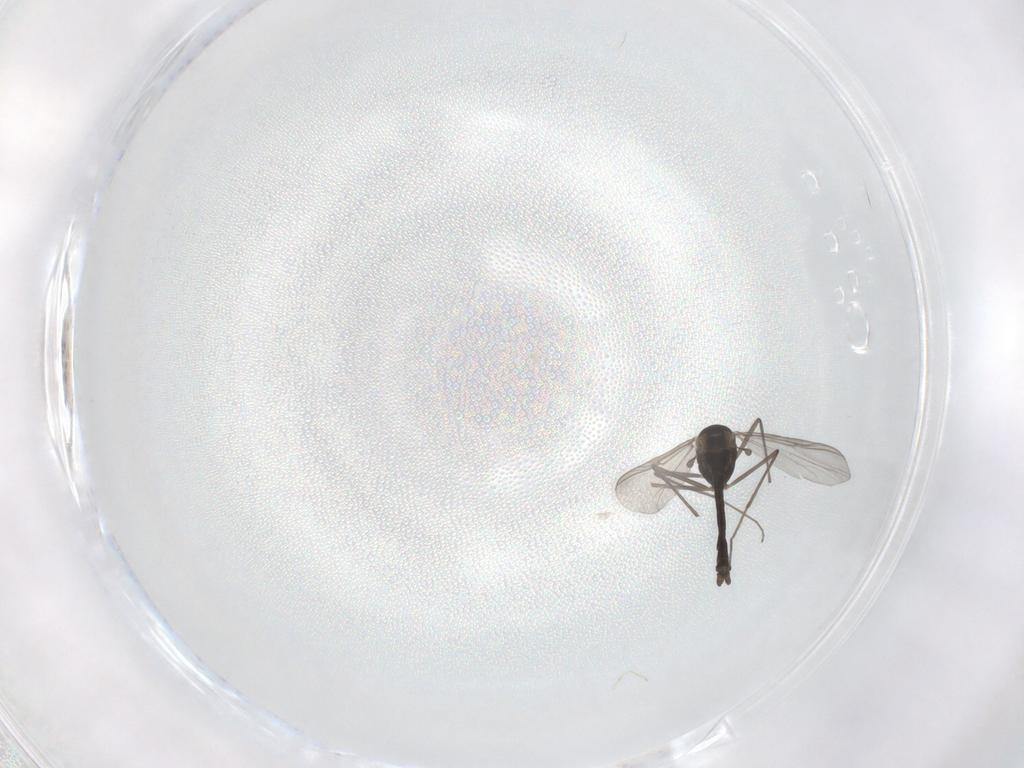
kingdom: Animalia
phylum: Arthropoda
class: Insecta
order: Diptera
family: Chironomidae
